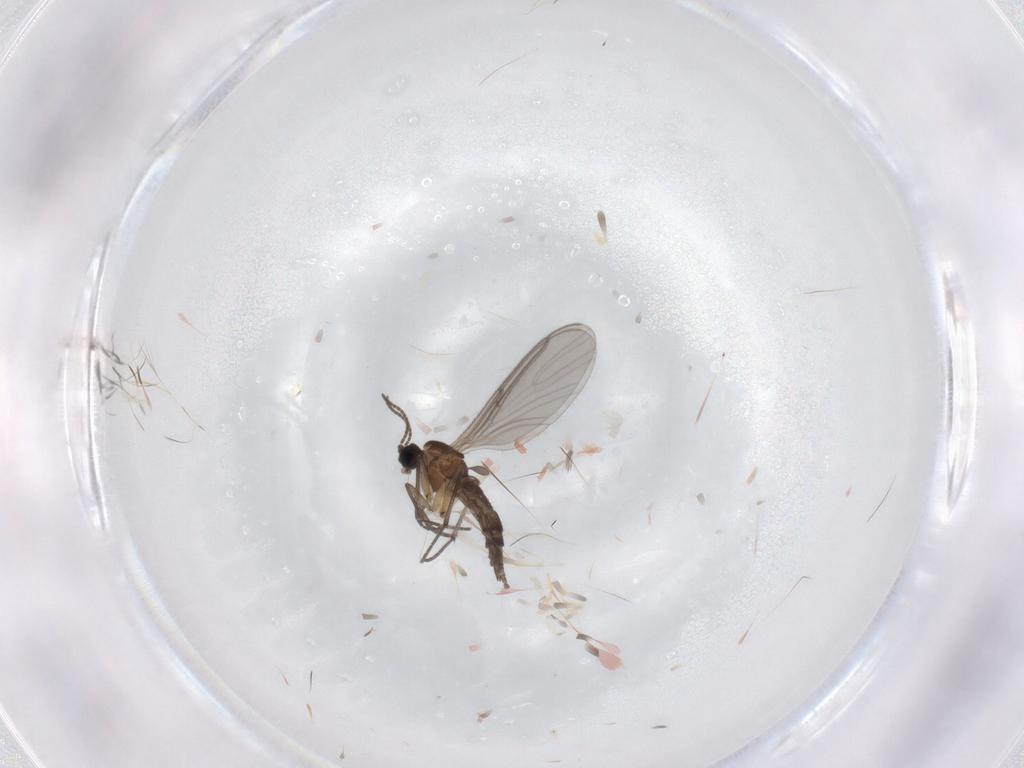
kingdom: Animalia
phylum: Arthropoda
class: Insecta
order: Diptera
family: Sciaridae
